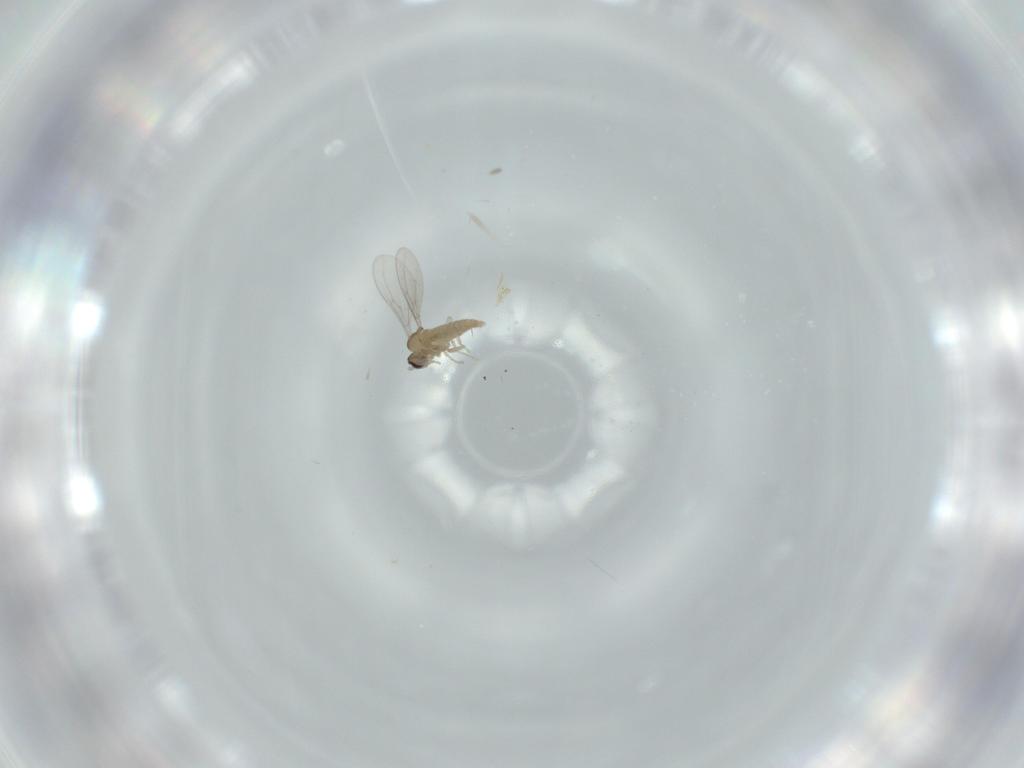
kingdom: Animalia
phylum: Arthropoda
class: Insecta
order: Diptera
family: Cecidomyiidae
